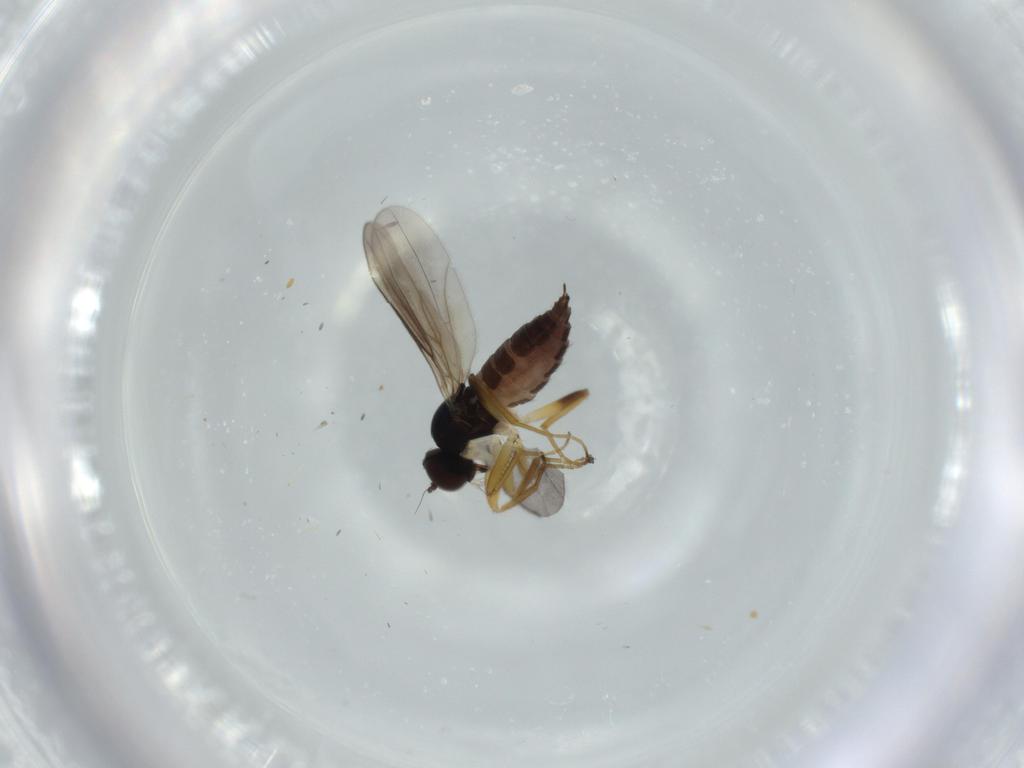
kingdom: Animalia
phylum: Arthropoda
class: Insecta
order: Diptera
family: Hybotidae
